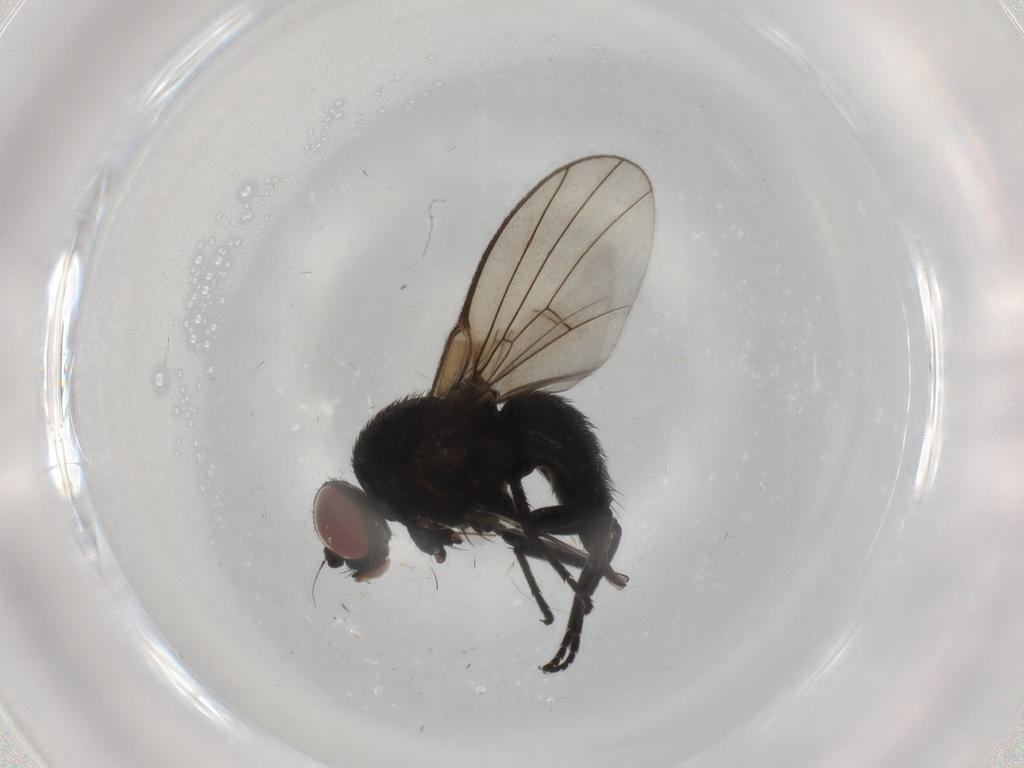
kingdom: Animalia
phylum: Arthropoda
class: Insecta
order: Diptera
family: Agromyzidae
